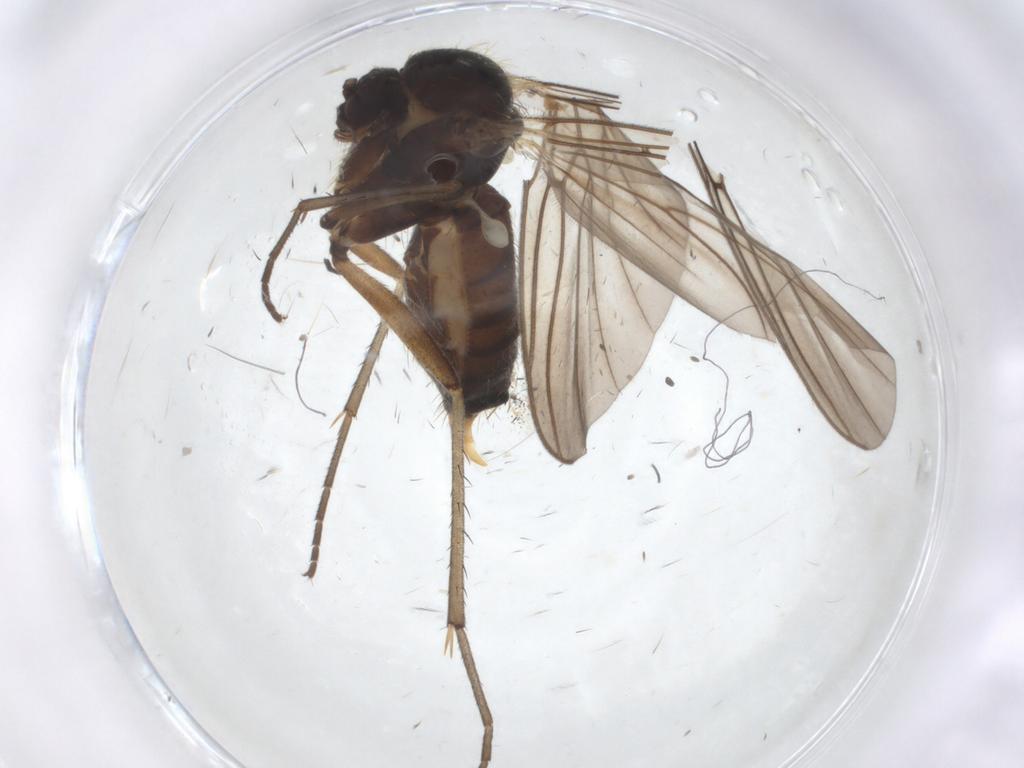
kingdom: Animalia
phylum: Arthropoda
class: Insecta
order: Diptera
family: Mycetophilidae
